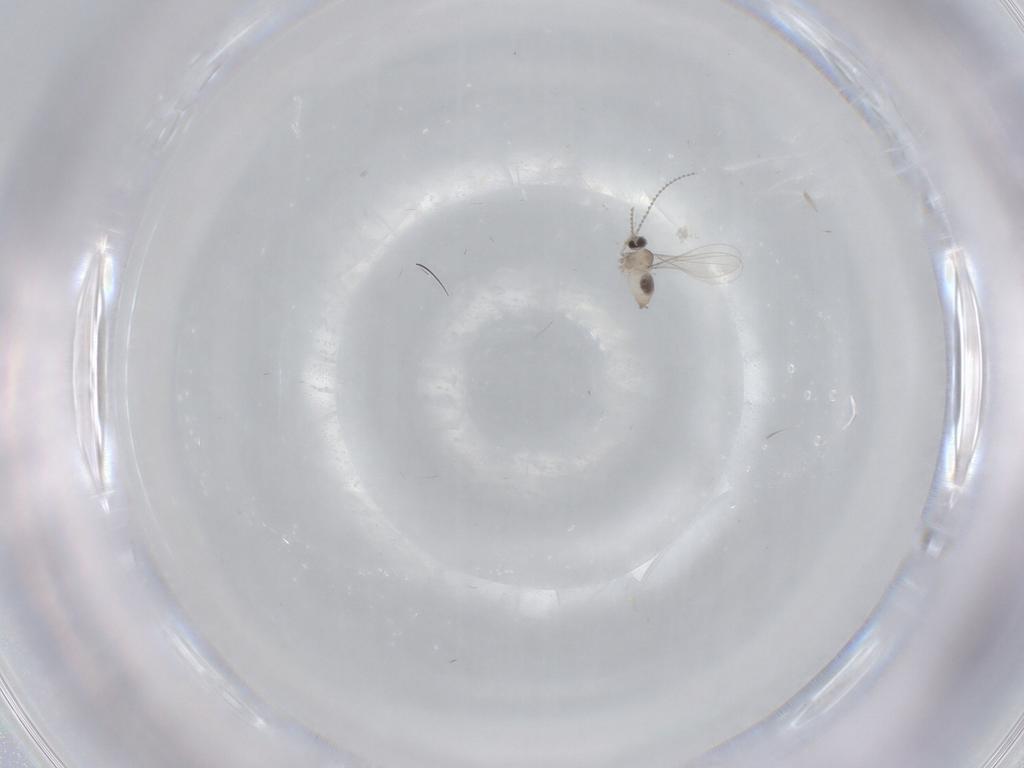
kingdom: Animalia
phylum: Arthropoda
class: Insecta
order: Diptera
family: Cecidomyiidae
